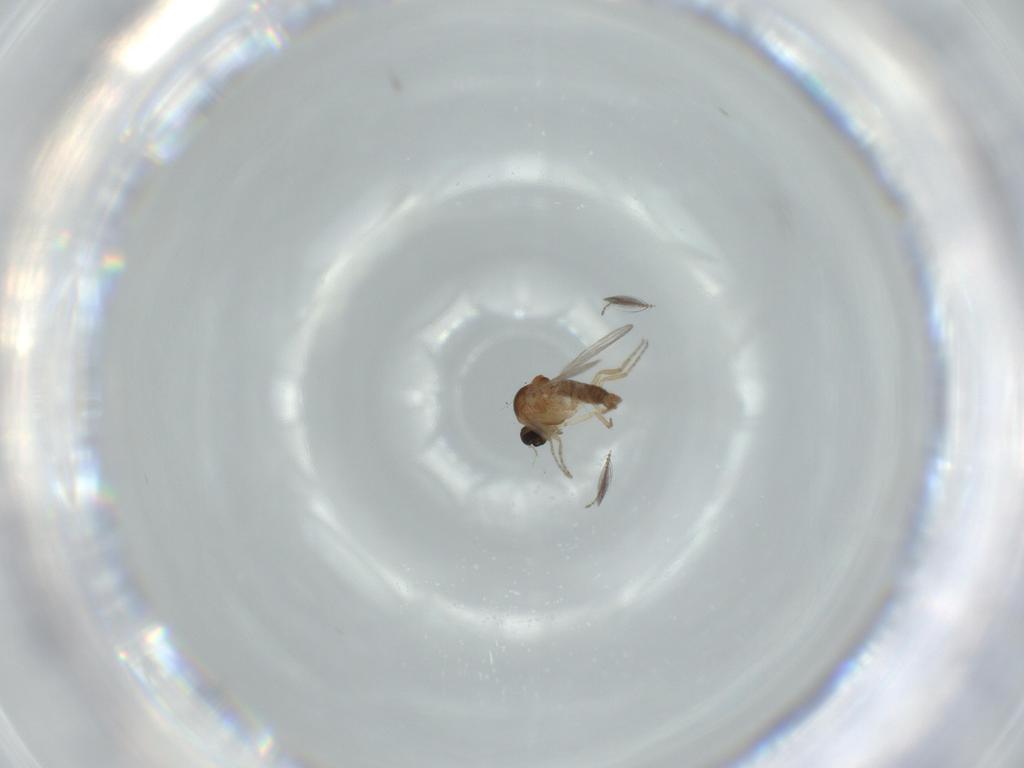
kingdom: Animalia
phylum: Arthropoda
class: Insecta
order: Diptera
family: Ceratopogonidae
